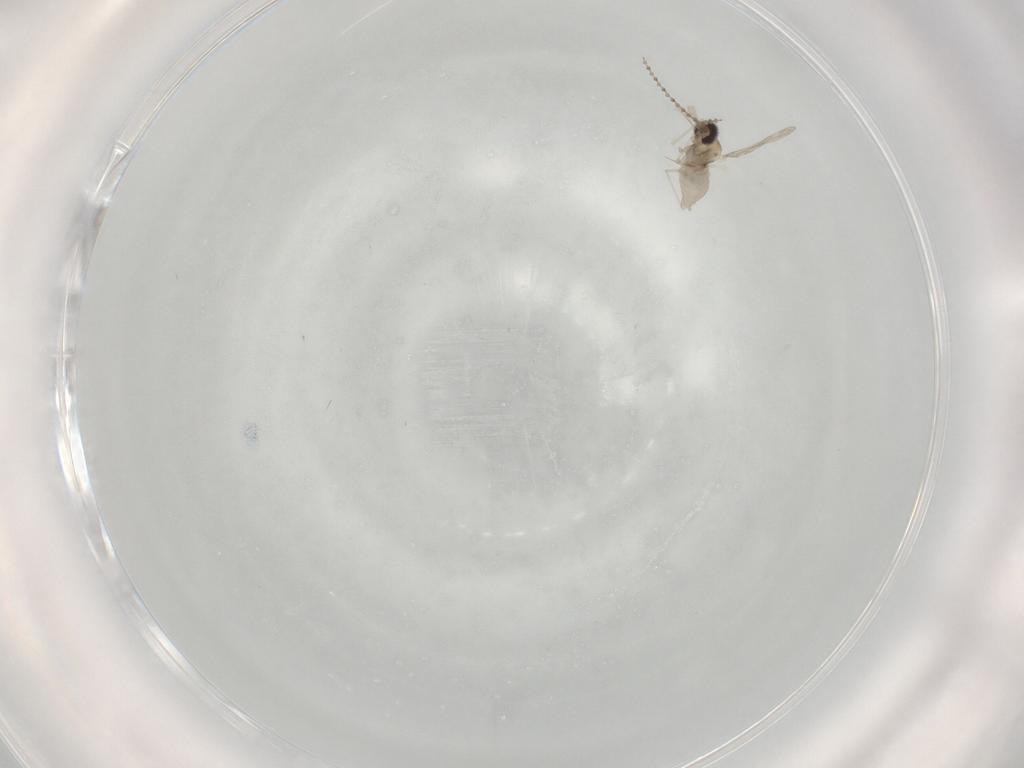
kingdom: Animalia
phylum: Arthropoda
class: Insecta
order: Diptera
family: Cecidomyiidae
